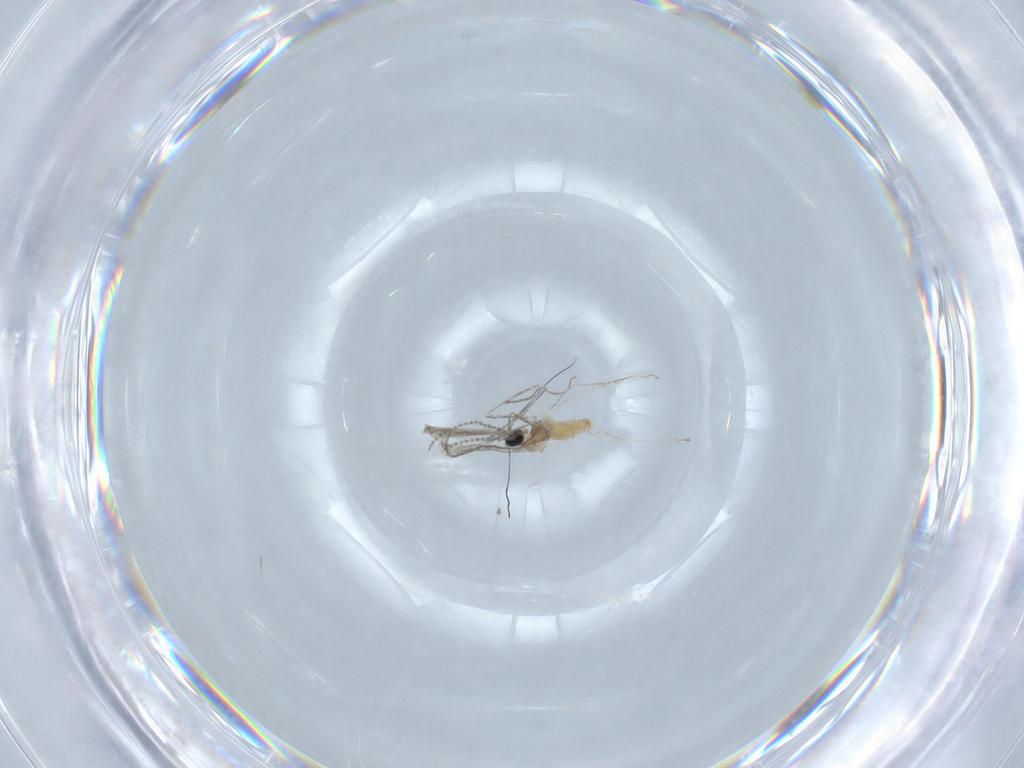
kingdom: Animalia
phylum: Arthropoda
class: Insecta
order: Diptera
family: Cecidomyiidae
